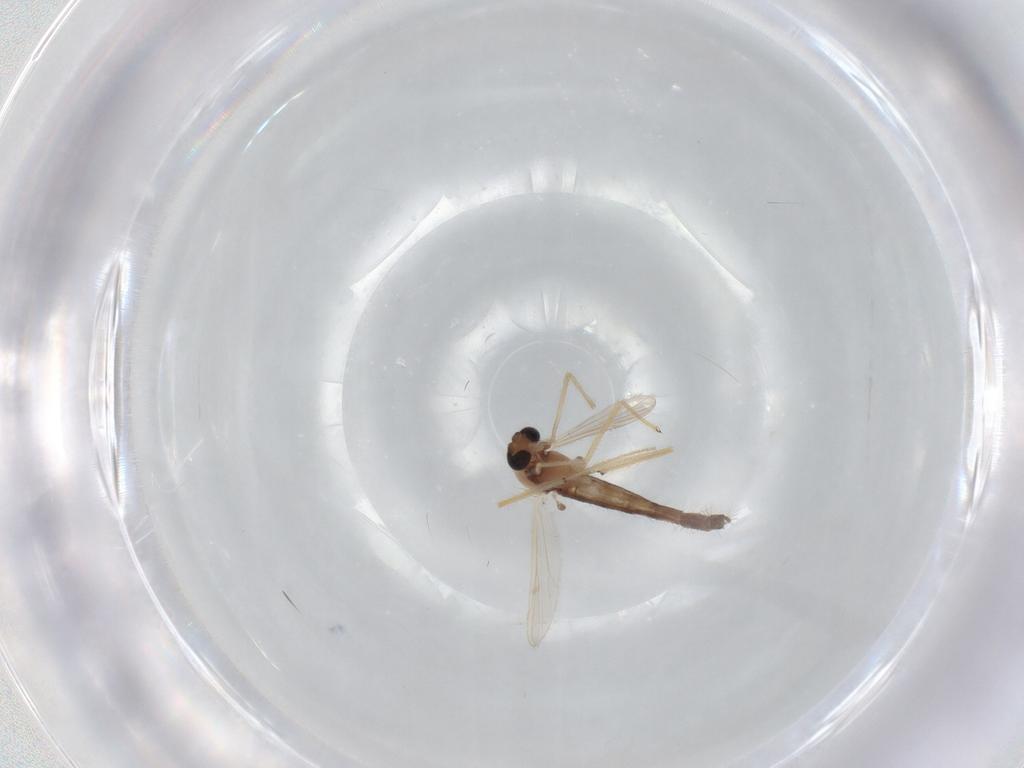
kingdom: Animalia
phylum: Arthropoda
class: Insecta
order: Diptera
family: Chironomidae
